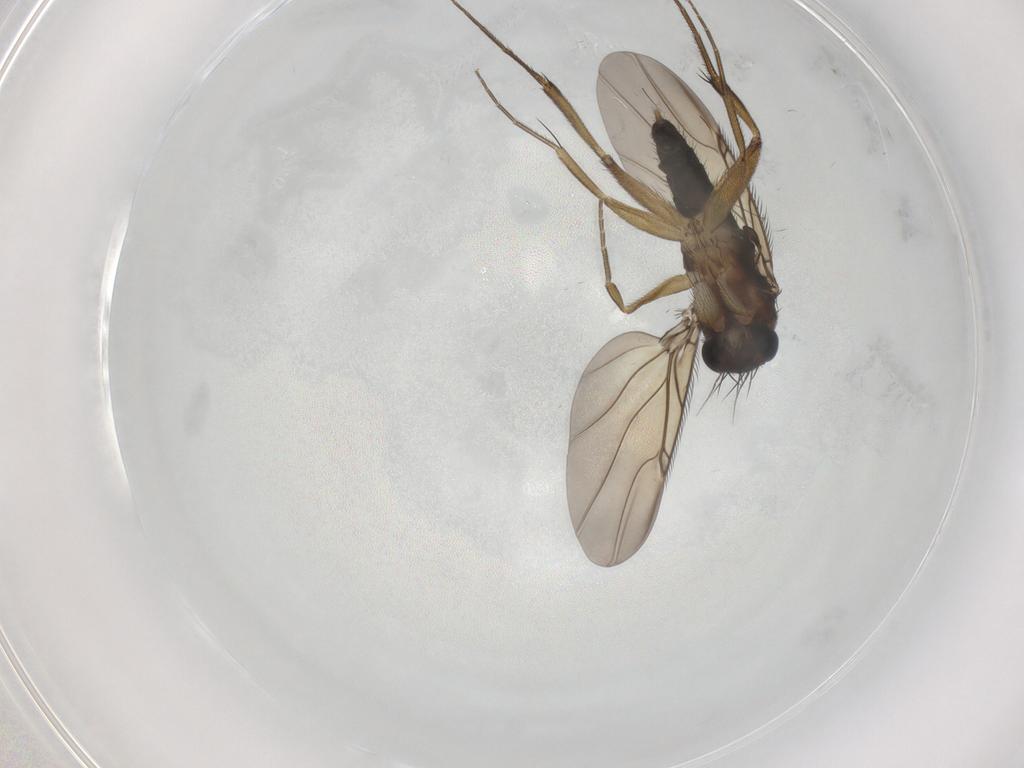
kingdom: Animalia
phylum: Arthropoda
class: Insecta
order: Diptera
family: Phoridae
